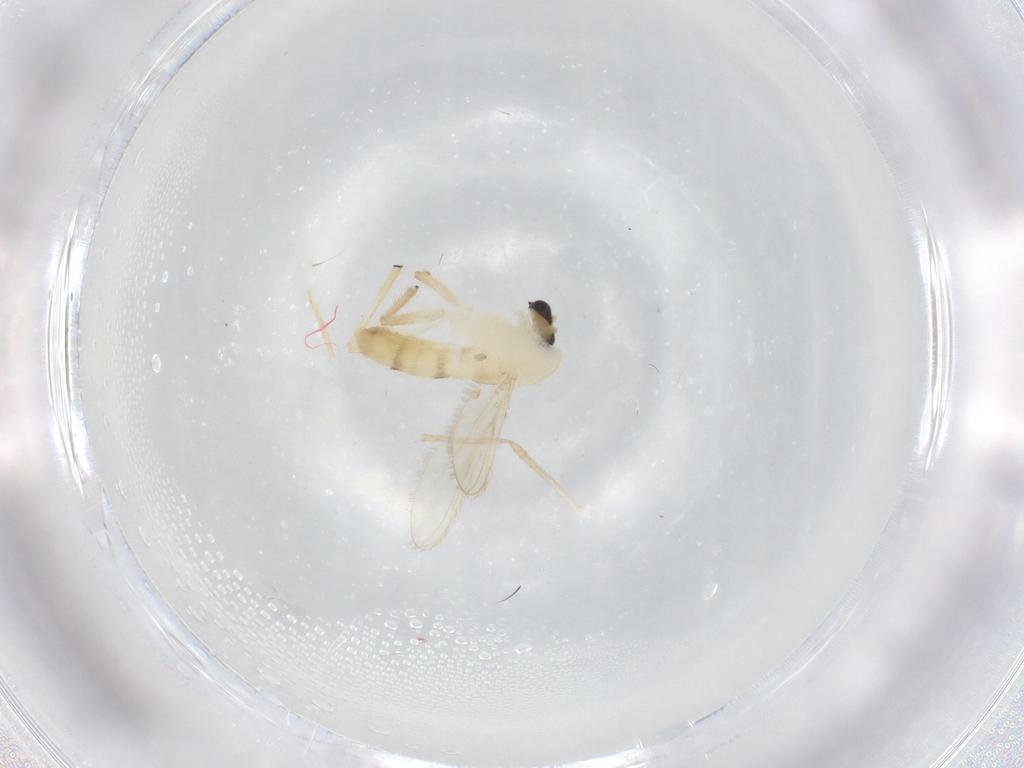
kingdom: Animalia
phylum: Arthropoda
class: Insecta
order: Diptera
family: Chironomidae
